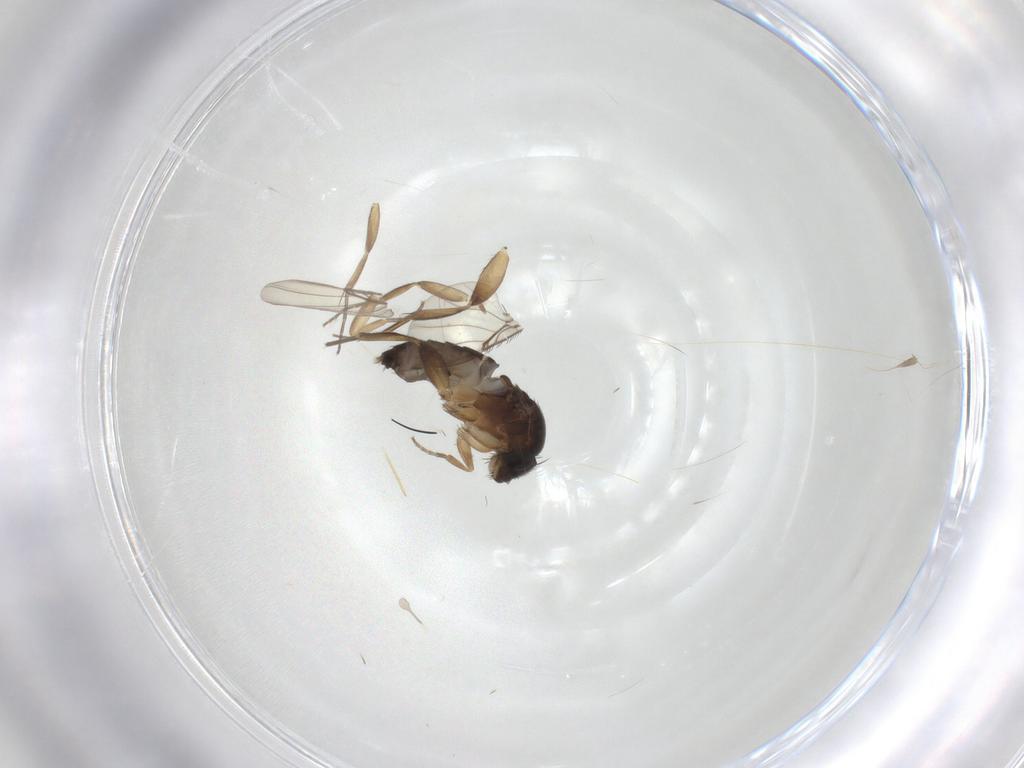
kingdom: Animalia
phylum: Arthropoda
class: Insecta
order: Diptera
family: Phoridae
